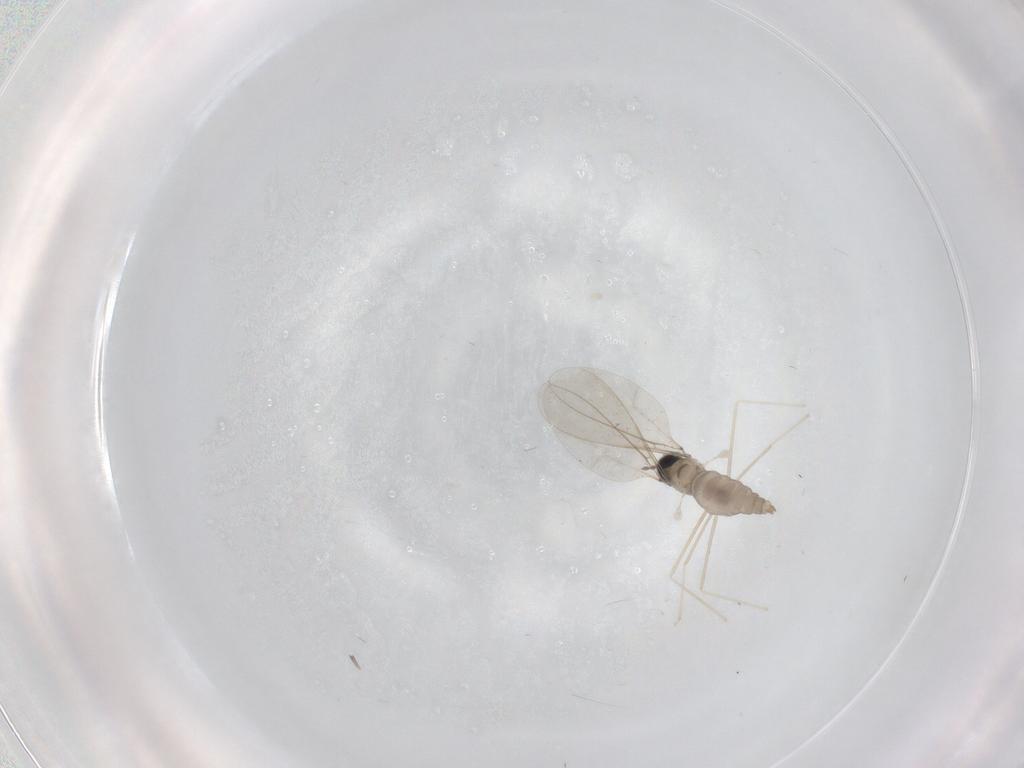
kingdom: Animalia
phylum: Arthropoda
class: Insecta
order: Diptera
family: Cecidomyiidae
